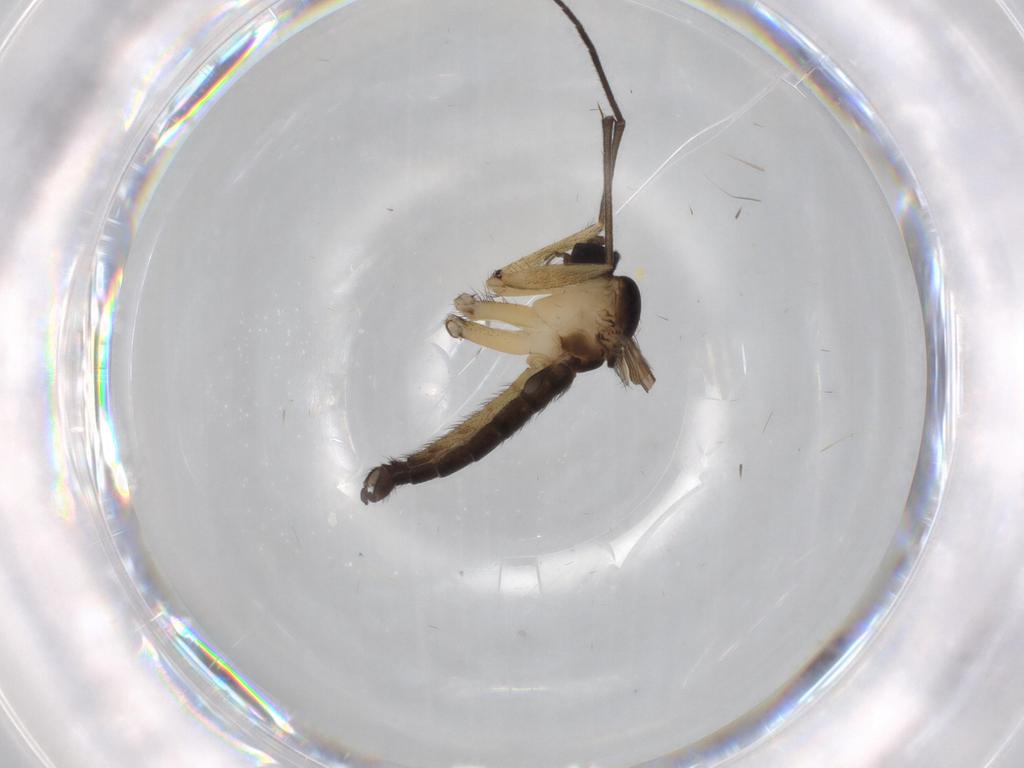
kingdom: Animalia
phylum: Arthropoda
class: Insecta
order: Diptera
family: Sciaridae
